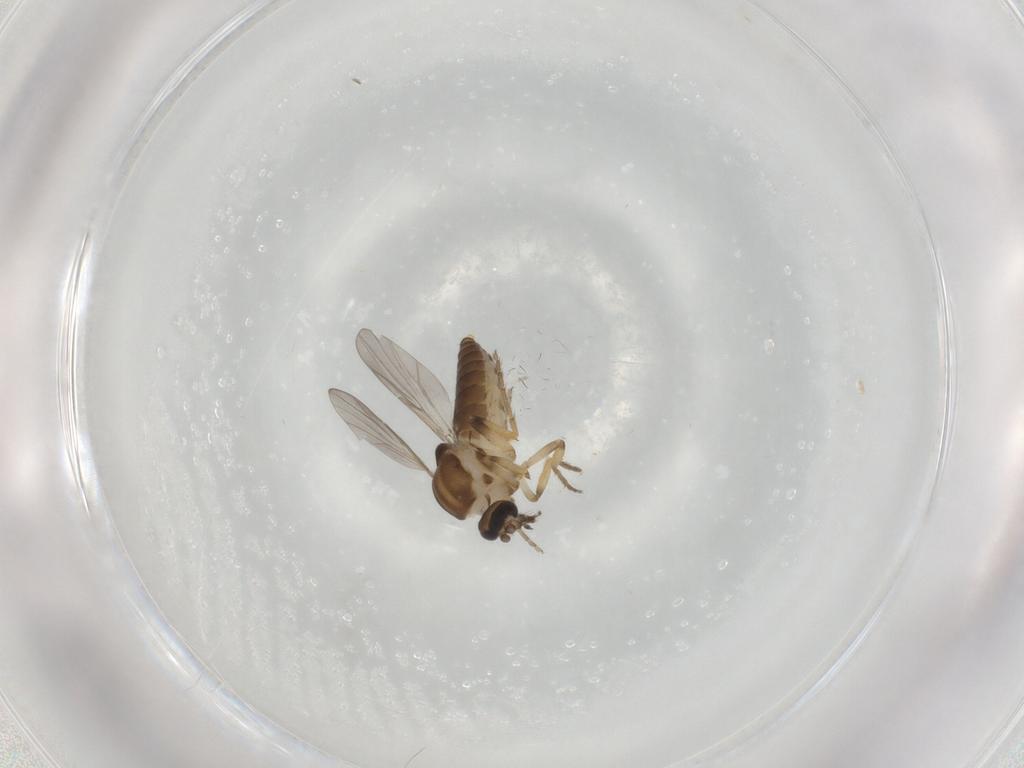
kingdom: Animalia
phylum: Arthropoda
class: Insecta
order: Diptera
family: Ceratopogonidae
